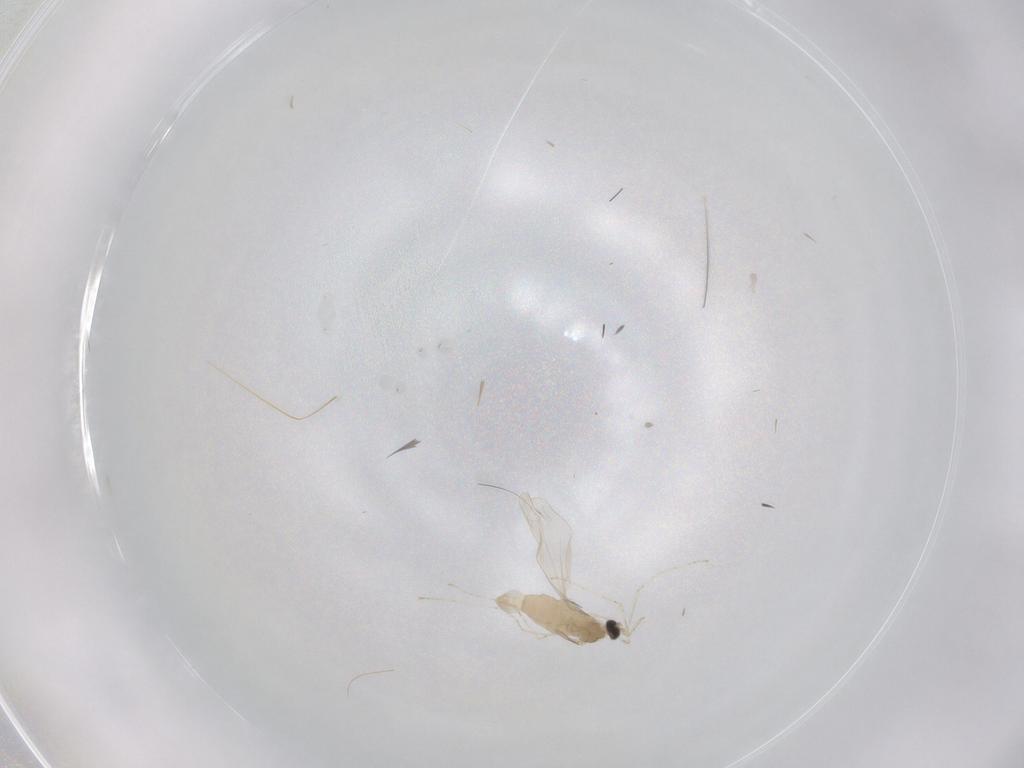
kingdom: Animalia
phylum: Arthropoda
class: Insecta
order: Diptera
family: Cecidomyiidae
